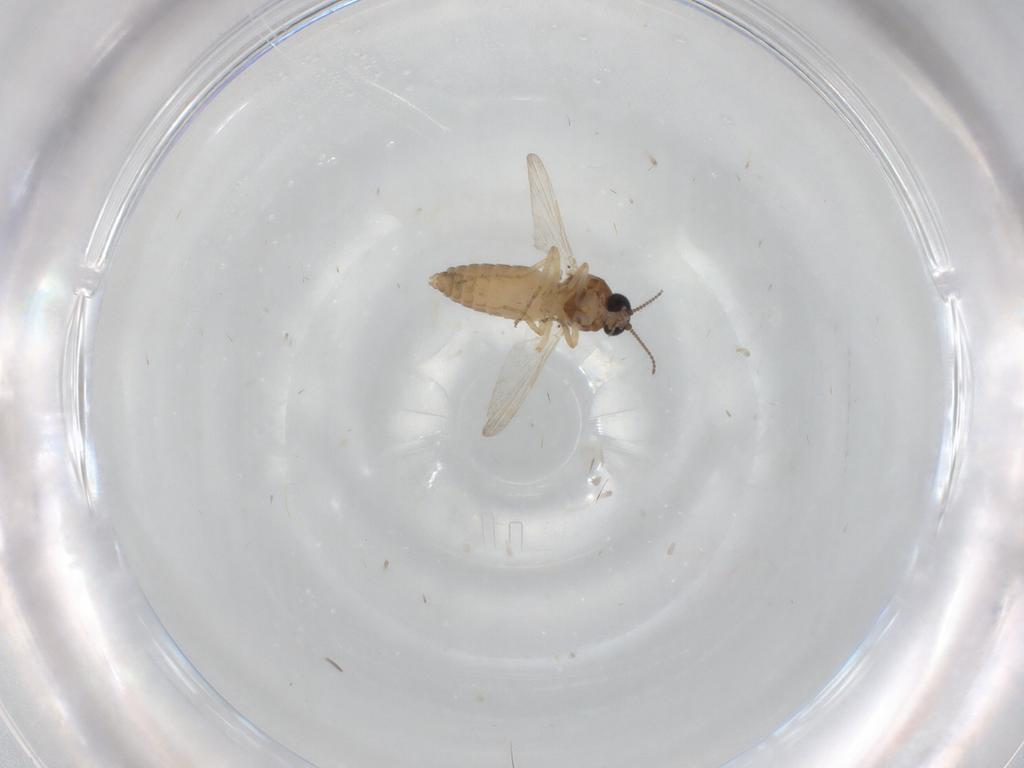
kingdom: Animalia
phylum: Arthropoda
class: Insecta
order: Diptera
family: Ceratopogonidae
